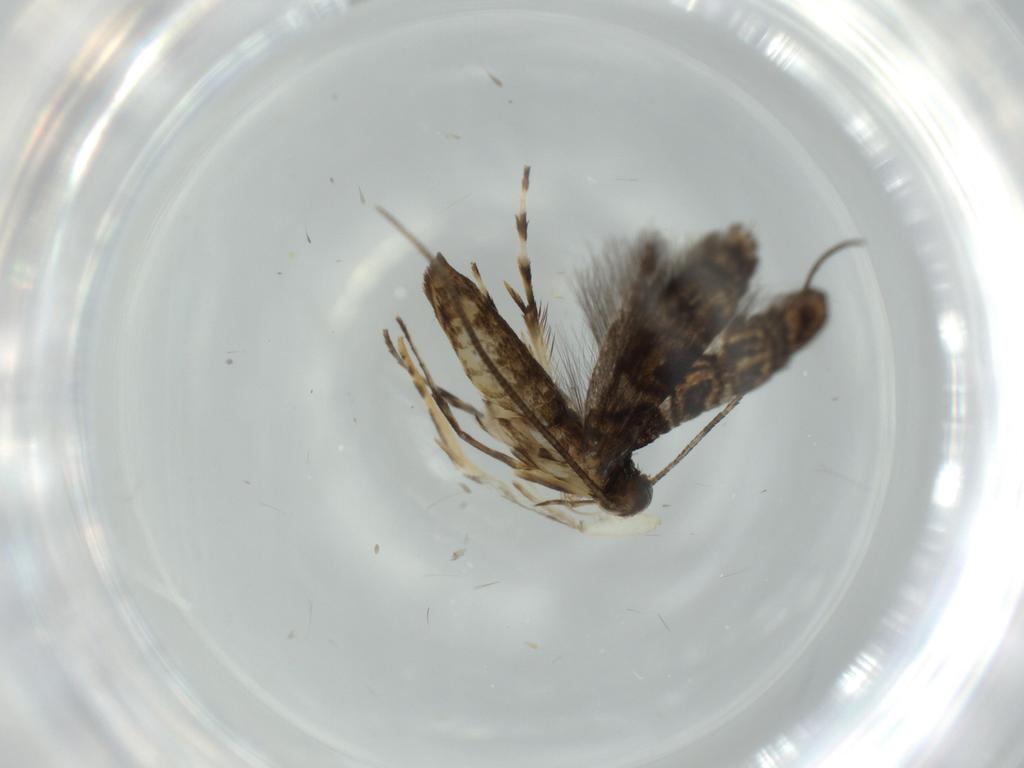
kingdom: Animalia
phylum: Arthropoda
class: Insecta
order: Lepidoptera
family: Gracillariidae
